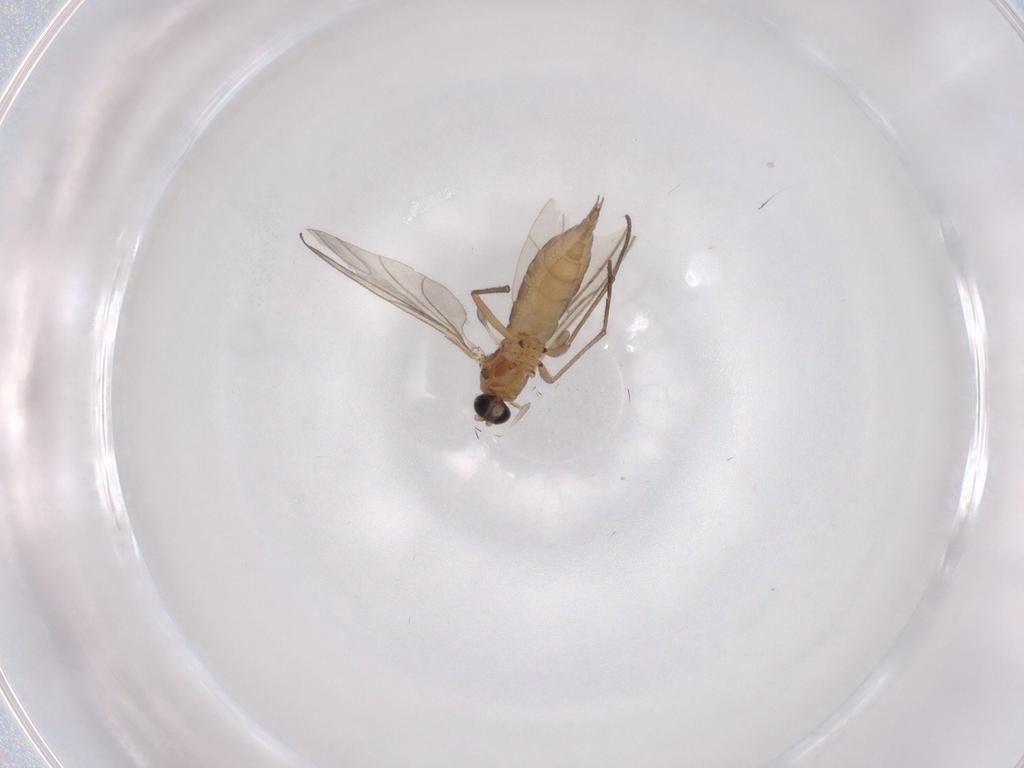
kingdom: Animalia
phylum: Arthropoda
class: Insecta
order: Diptera
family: Sciaridae
